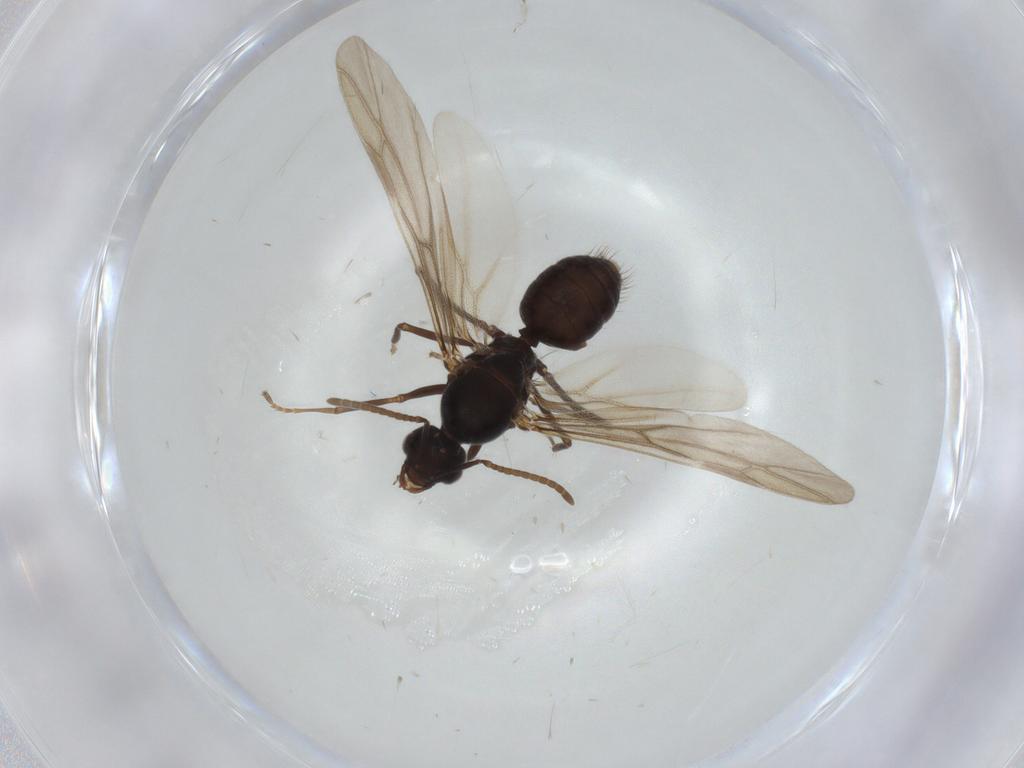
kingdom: Animalia
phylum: Arthropoda
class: Insecta
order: Hymenoptera
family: Formicidae
